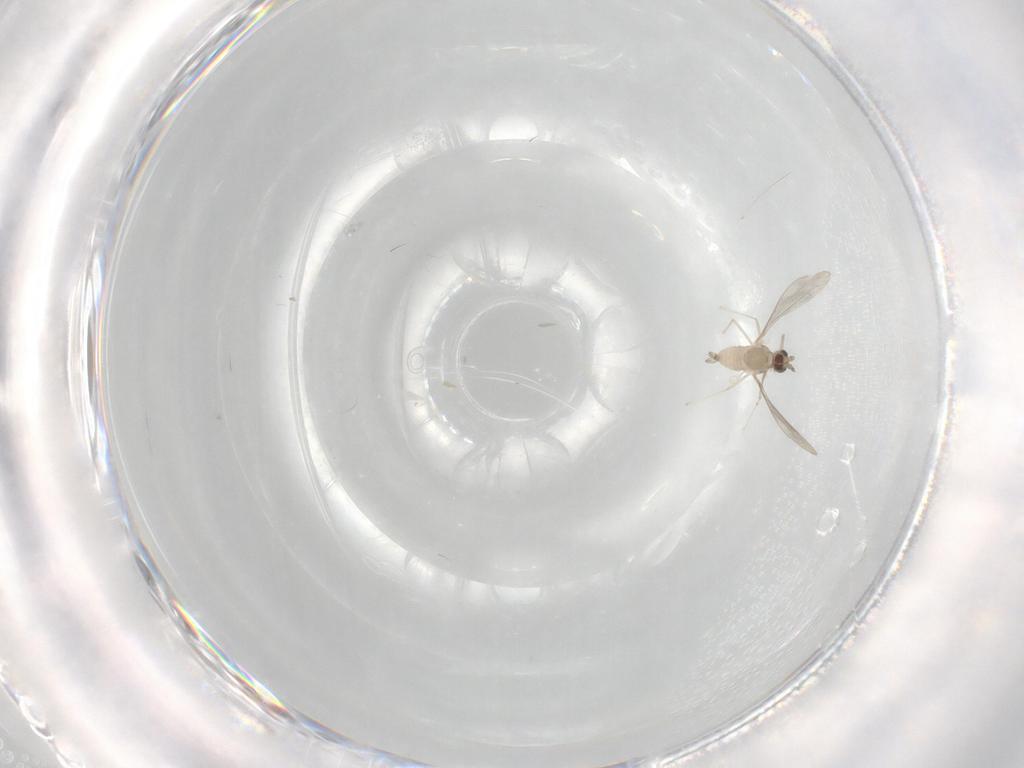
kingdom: Animalia
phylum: Arthropoda
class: Insecta
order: Diptera
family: Cecidomyiidae
